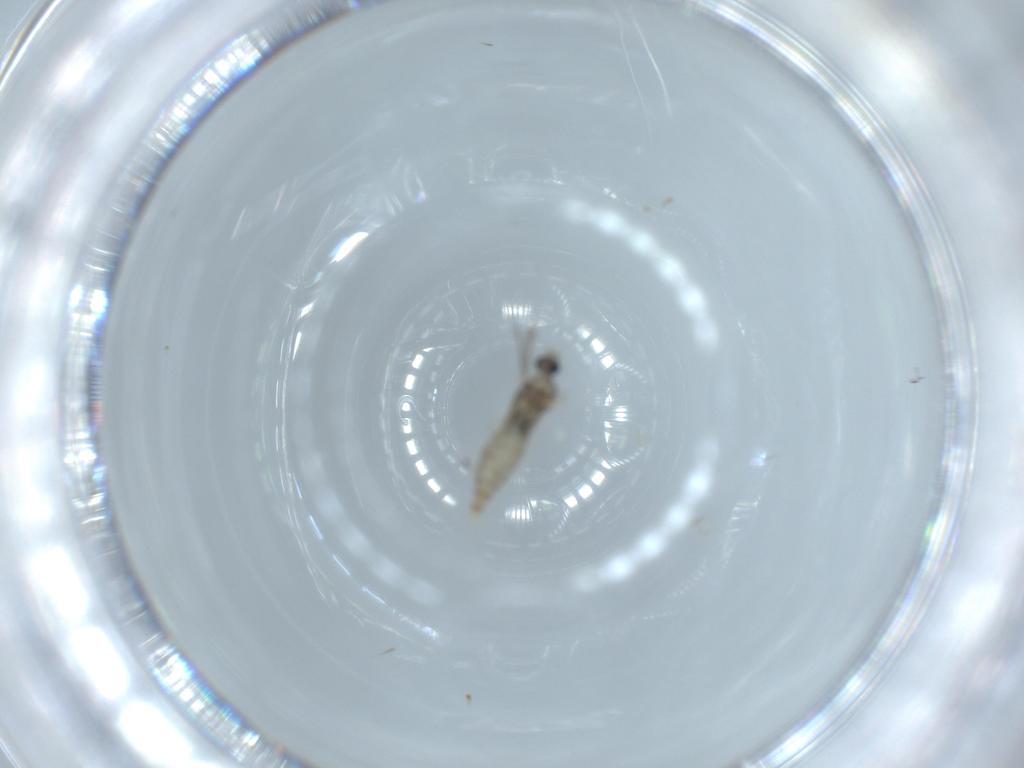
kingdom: Animalia
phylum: Arthropoda
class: Insecta
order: Diptera
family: Cecidomyiidae
